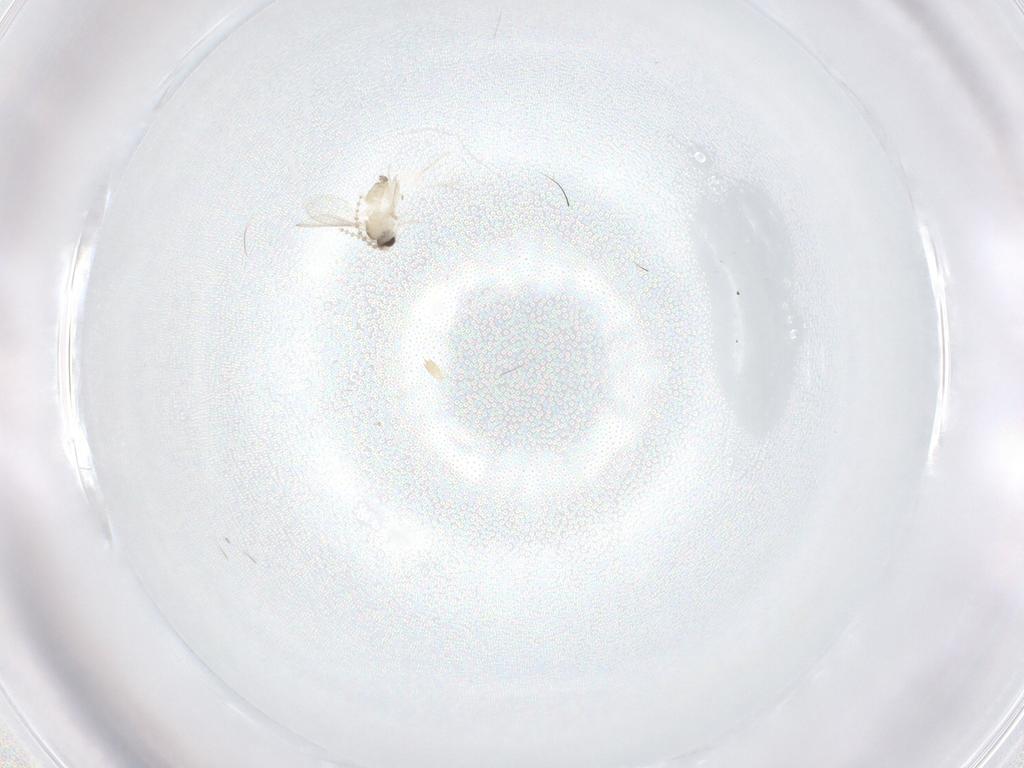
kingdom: Animalia
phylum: Arthropoda
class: Insecta
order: Diptera
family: Cecidomyiidae
